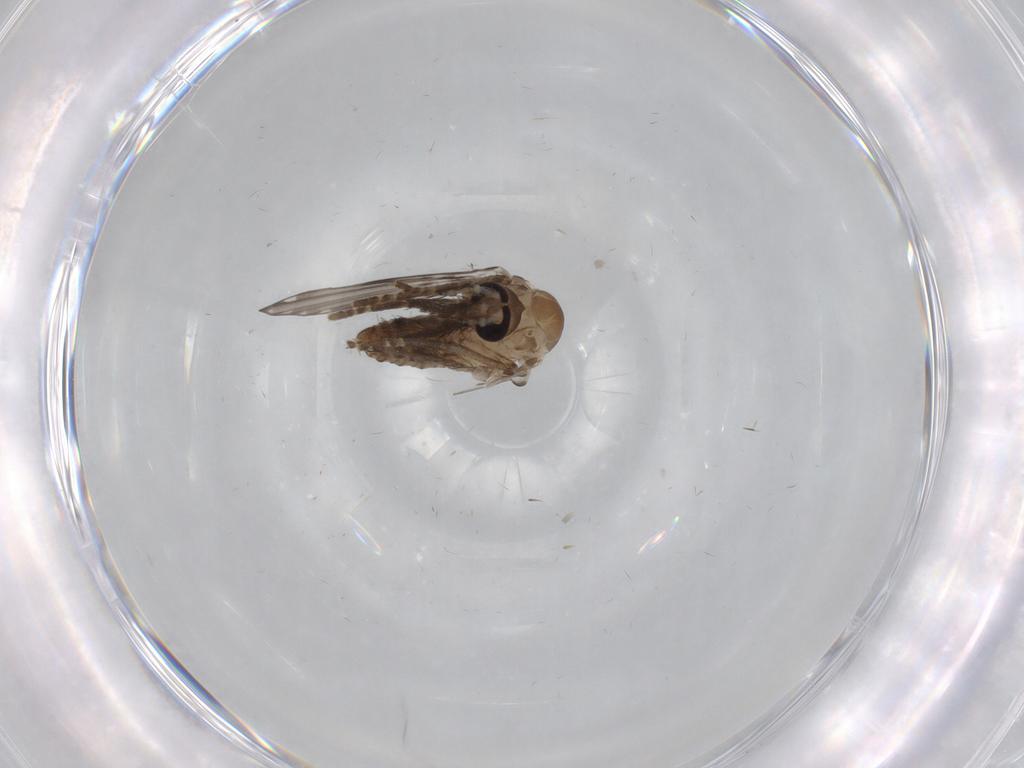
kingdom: Animalia
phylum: Arthropoda
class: Insecta
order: Diptera
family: Psychodidae
